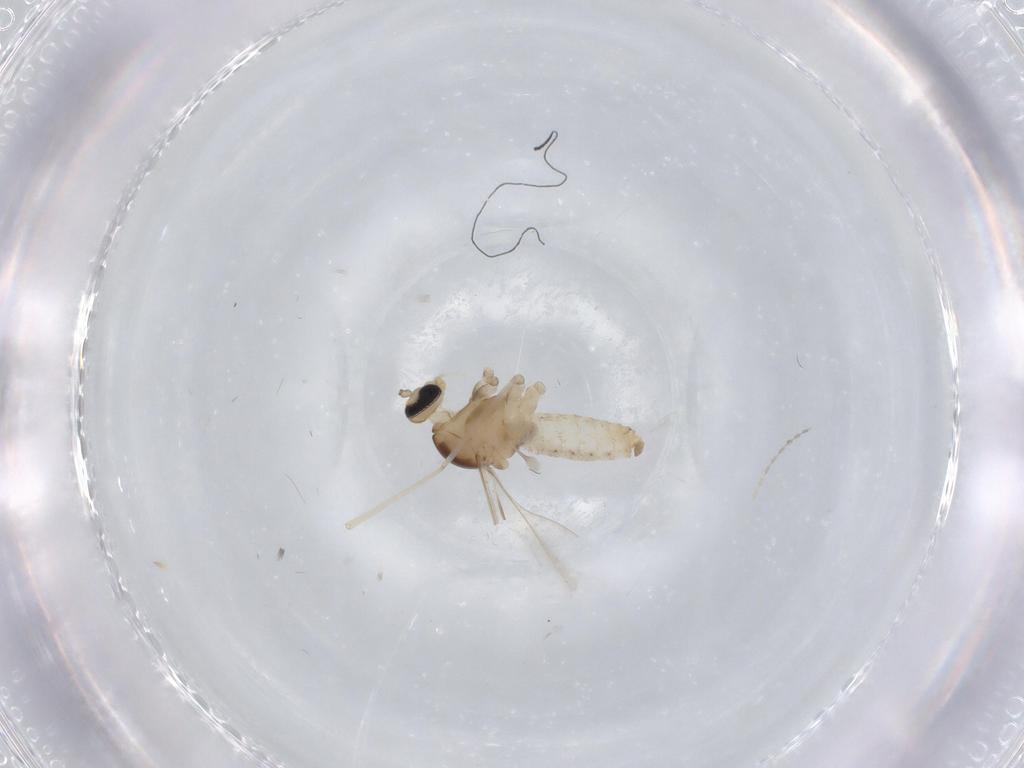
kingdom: Animalia
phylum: Arthropoda
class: Insecta
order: Diptera
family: Cecidomyiidae
